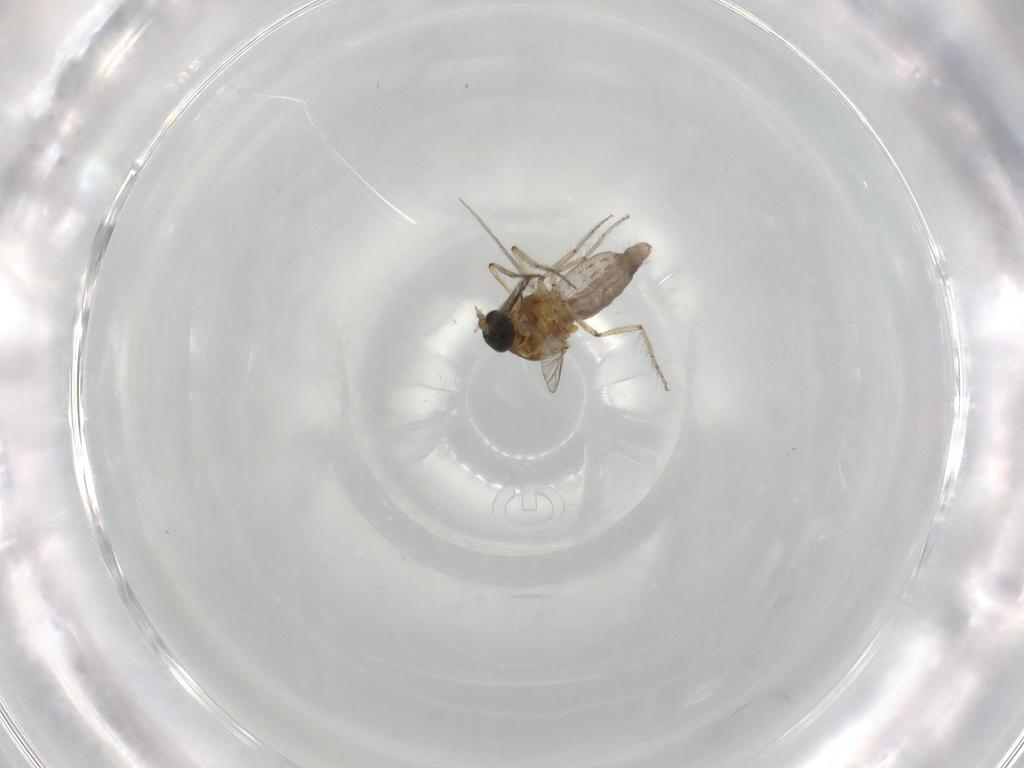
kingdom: Animalia
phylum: Arthropoda
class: Insecta
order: Diptera
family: Ceratopogonidae
